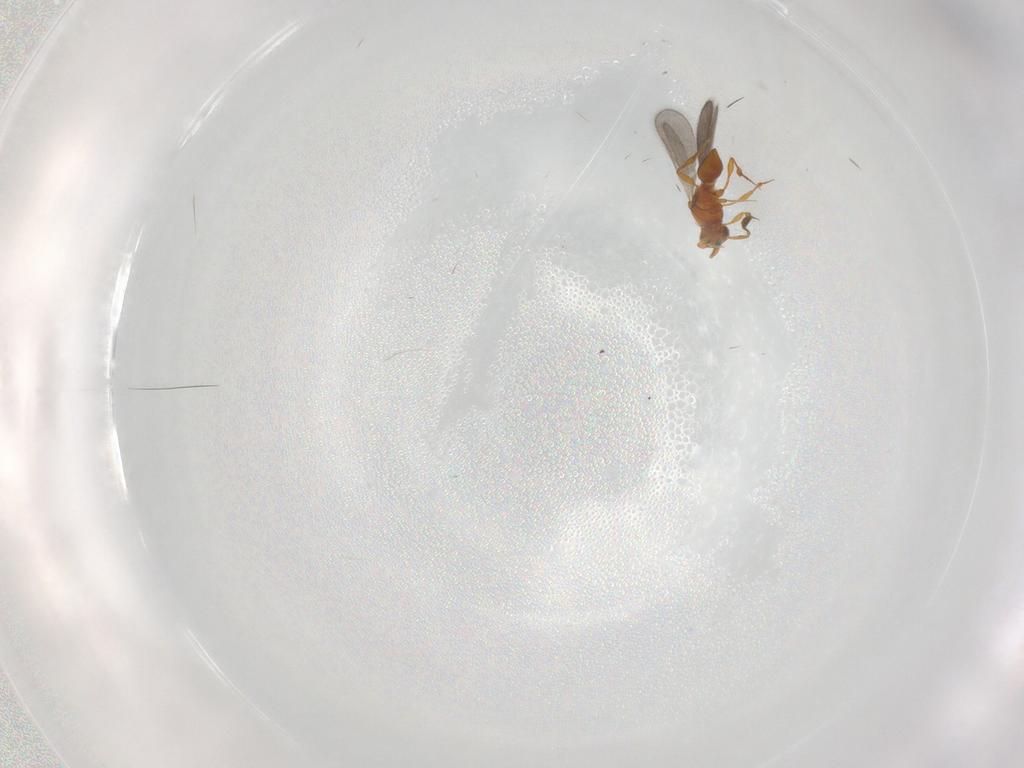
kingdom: Animalia
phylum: Arthropoda
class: Insecta
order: Hymenoptera
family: Platygastridae
